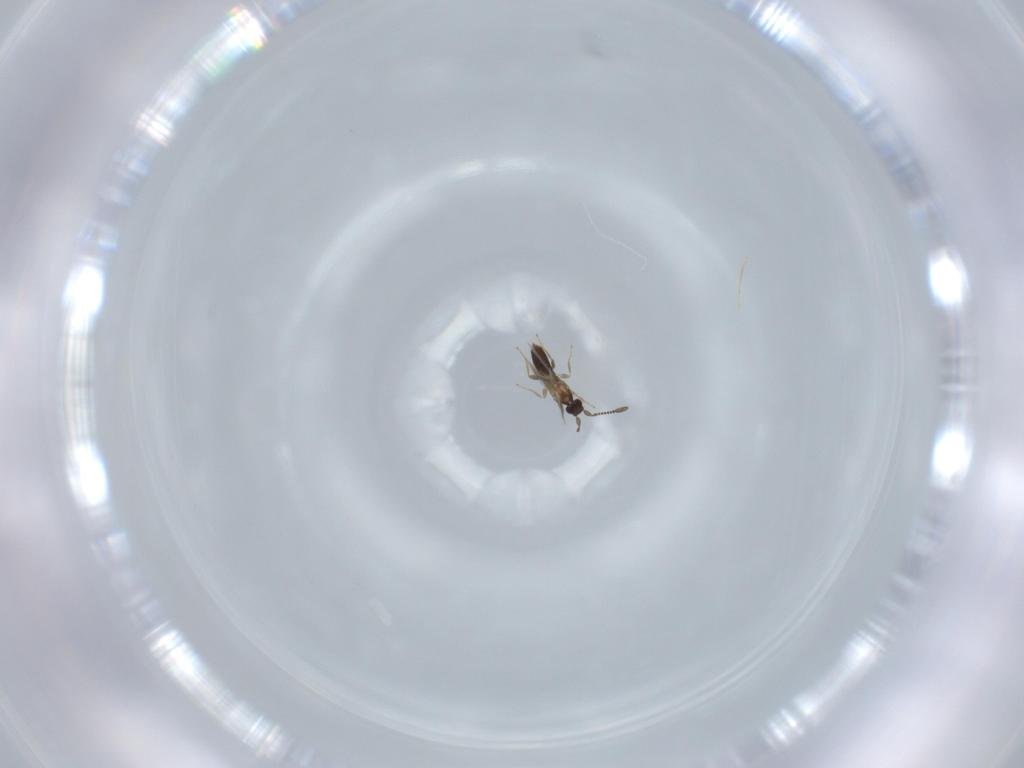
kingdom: Animalia
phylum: Arthropoda
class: Insecta
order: Hymenoptera
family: Mymaridae
